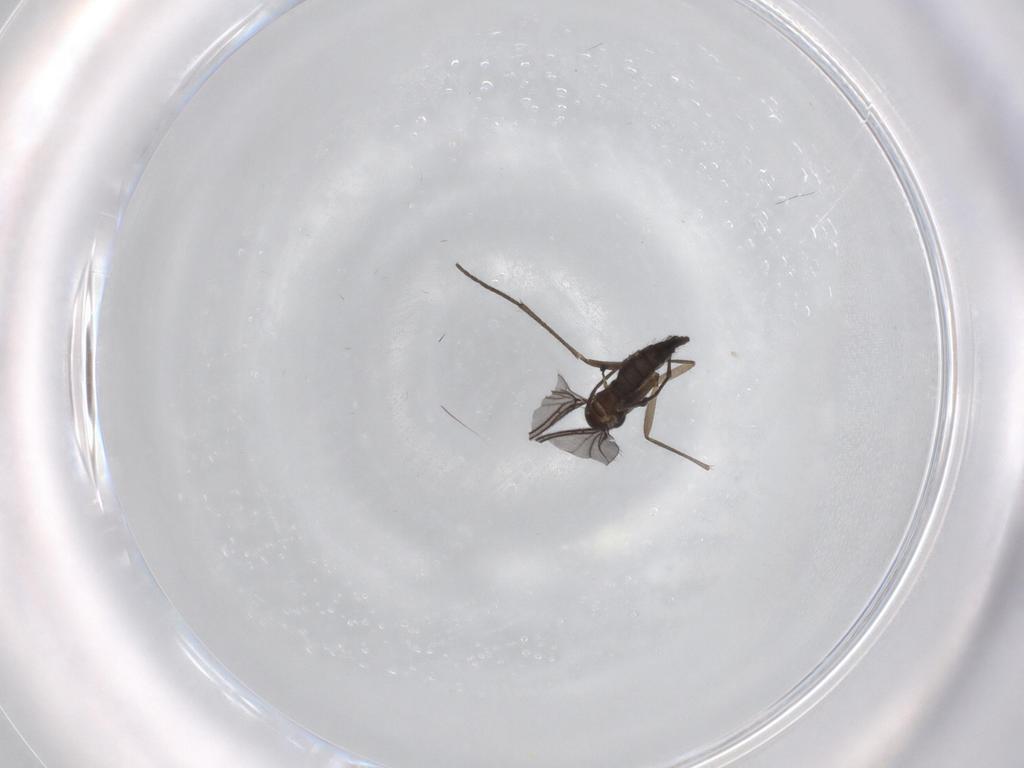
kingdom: Animalia
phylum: Arthropoda
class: Insecta
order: Diptera
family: Sciaridae
